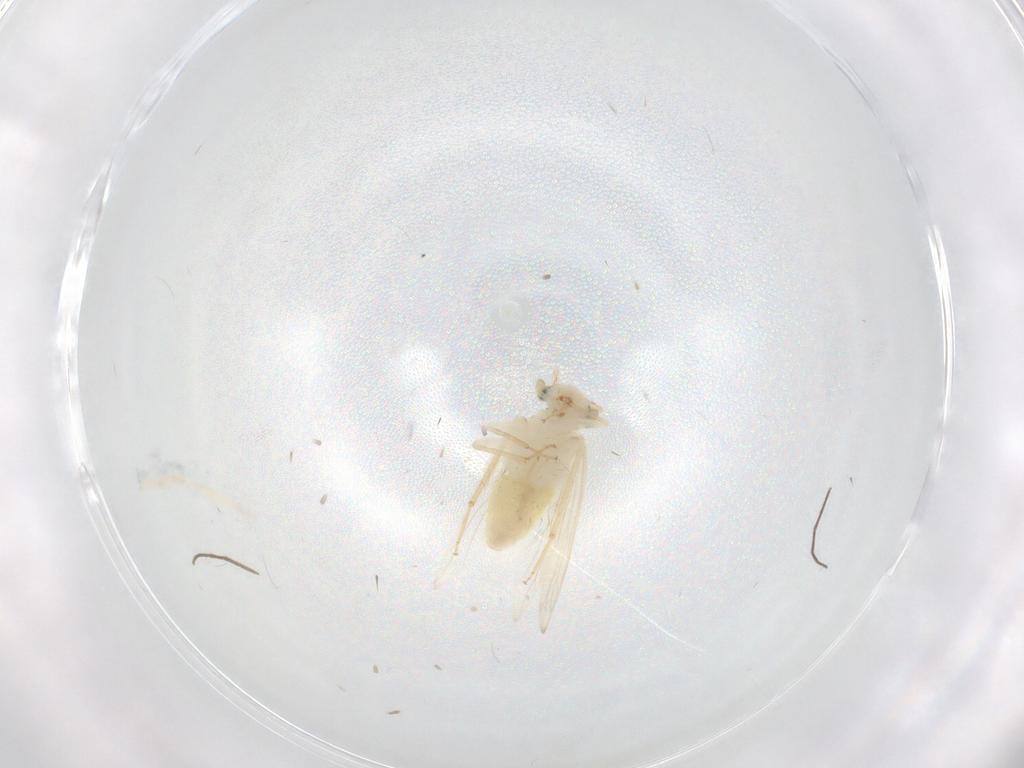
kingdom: Animalia
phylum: Arthropoda
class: Insecta
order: Psocodea
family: Lepidopsocidae
